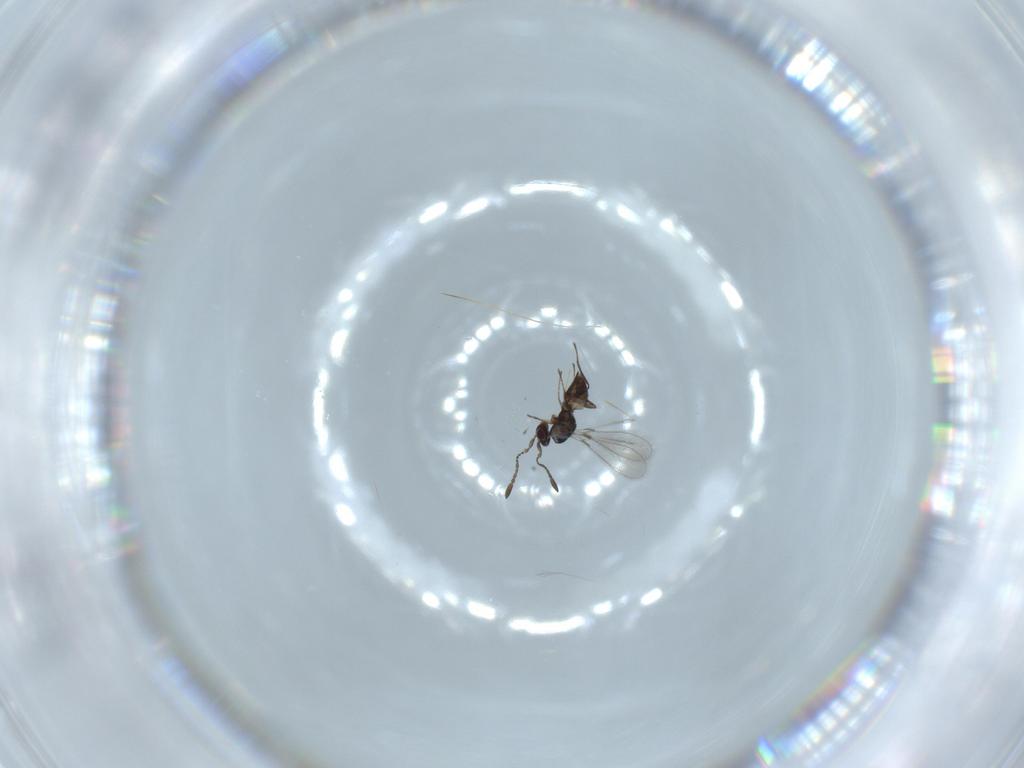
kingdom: Animalia
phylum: Arthropoda
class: Insecta
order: Hymenoptera
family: Mymaridae
